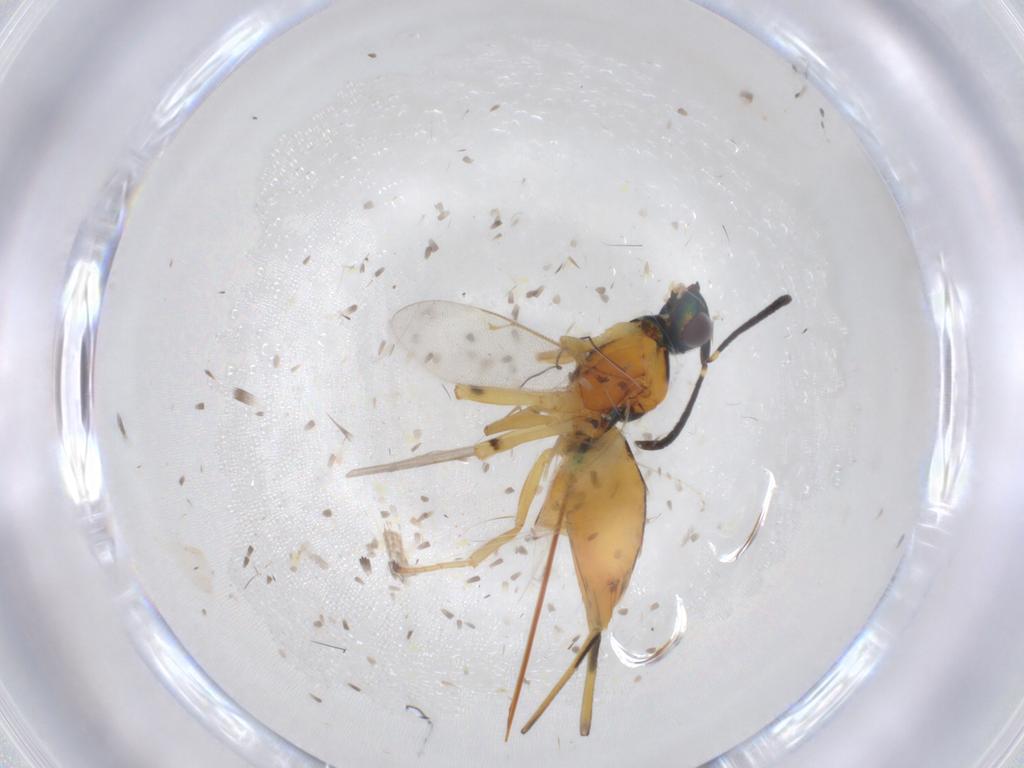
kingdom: Animalia
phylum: Arthropoda
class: Insecta
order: Hymenoptera
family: Eupelmidae
